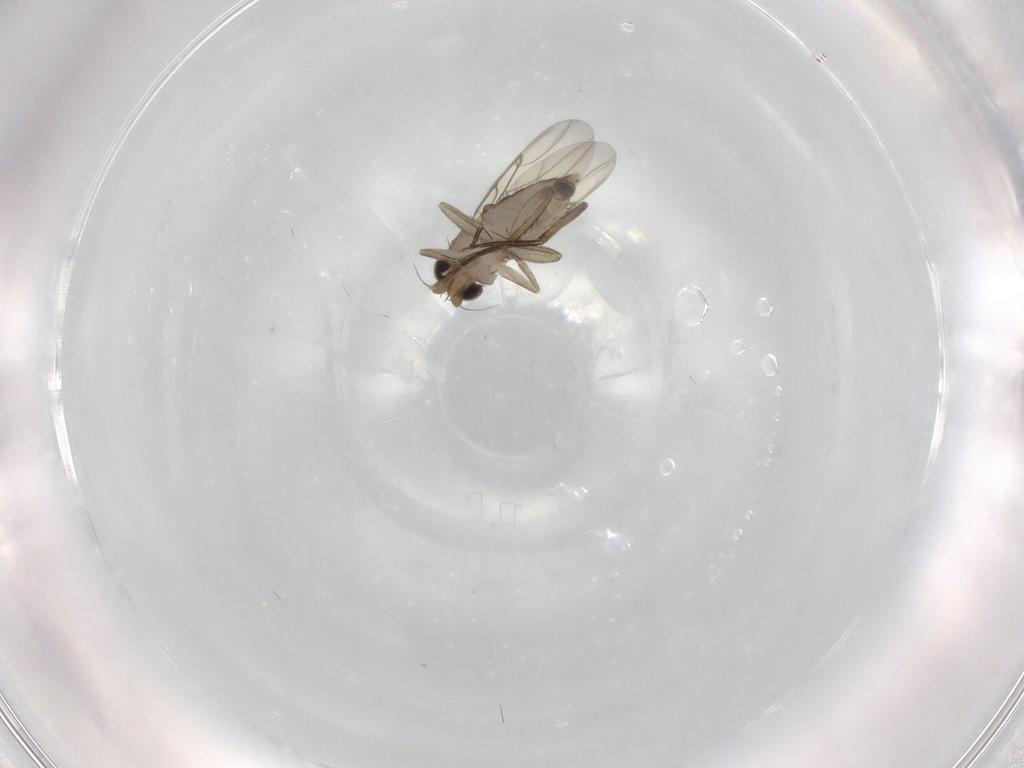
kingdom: Animalia
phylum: Arthropoda
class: Insecta
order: Diptera
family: Phoridae
